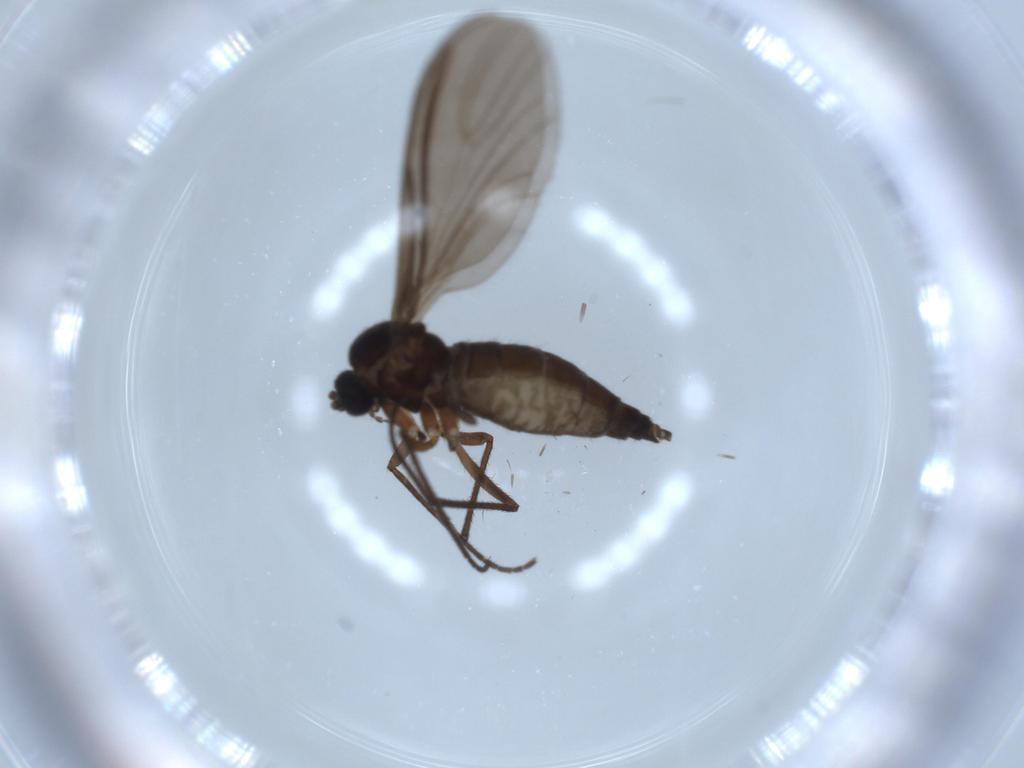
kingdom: Animalia
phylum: Arthropoda
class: Insecta
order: Diptera
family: Sciaridae
